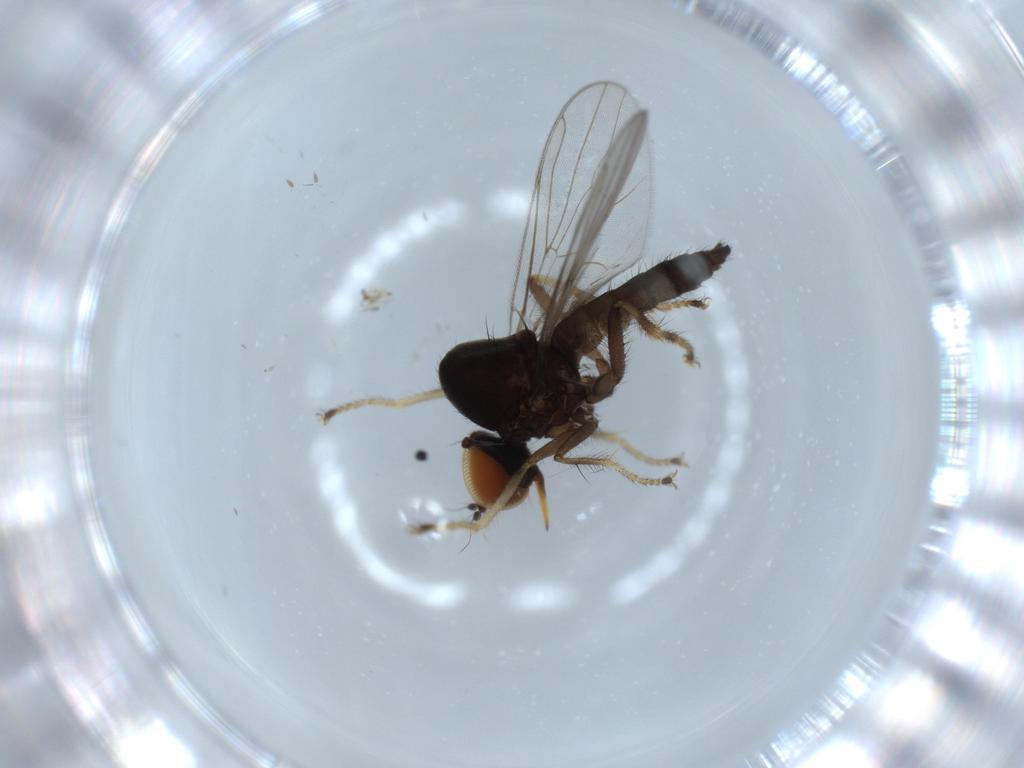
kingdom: Animalia
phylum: Arthropoda
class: Insecta
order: Diptera
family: Hybotidae
